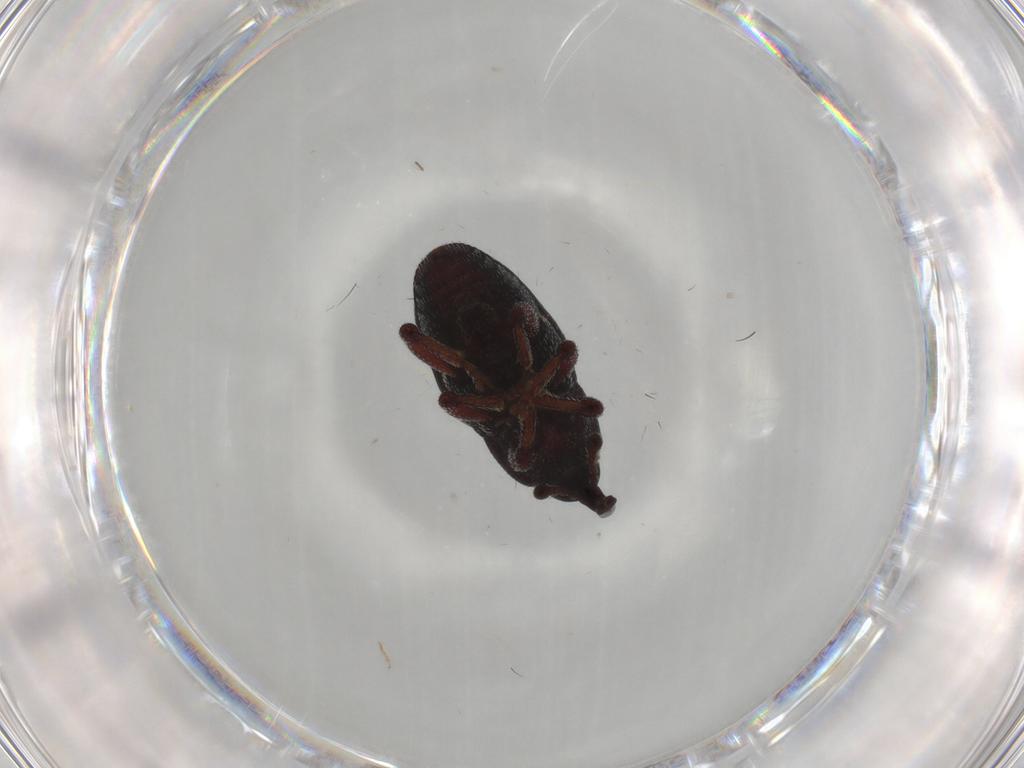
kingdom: Animalia
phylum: Arthropoda
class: Insecta
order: Coleoptera
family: Curculionidae
